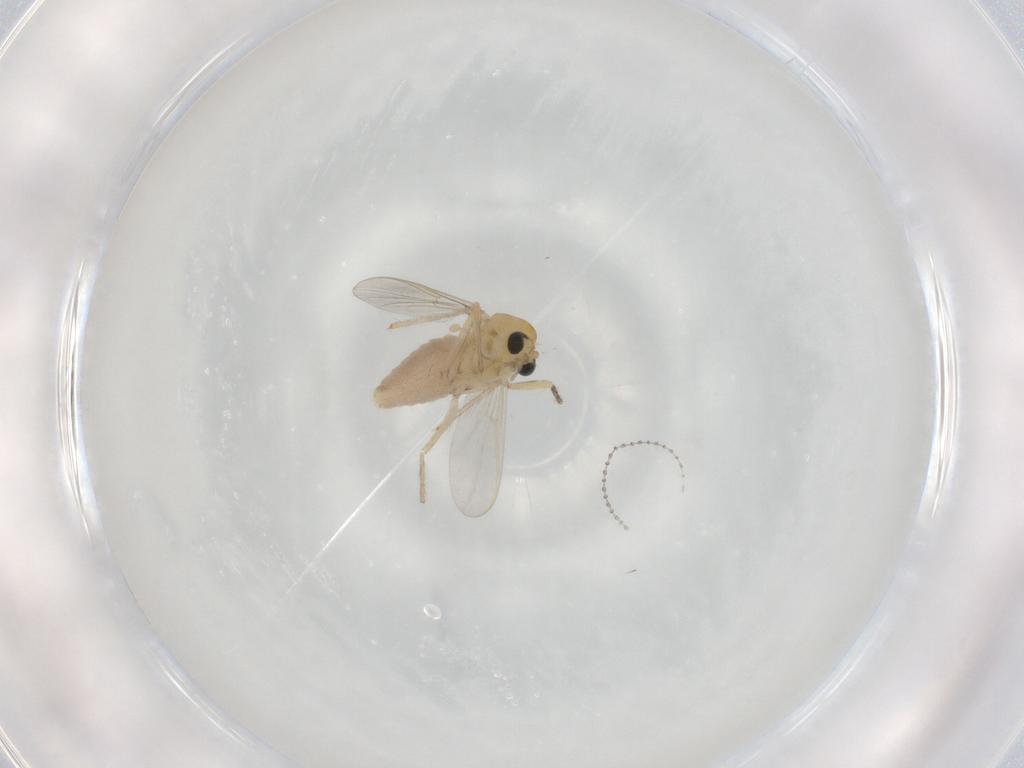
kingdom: Animalia
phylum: Arthropoda
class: Insecta
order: Diptera
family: Chironomidae
